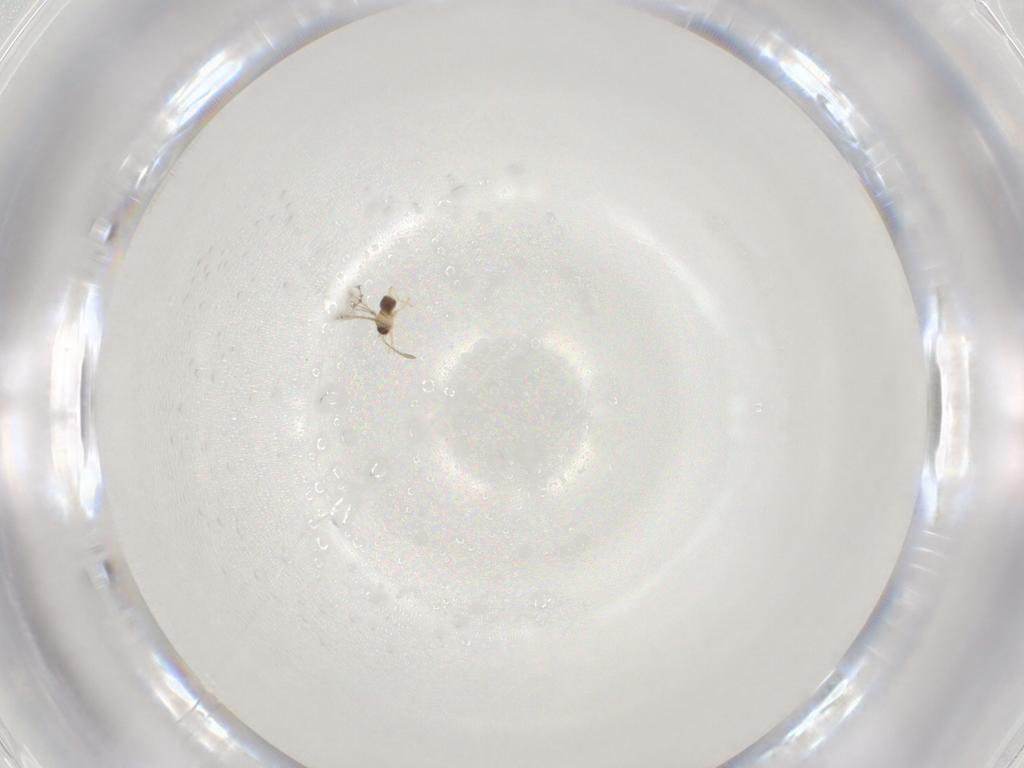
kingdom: Animalia
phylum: Arthropoda
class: Insecta
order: Hymenoptera
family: Mymaridae
